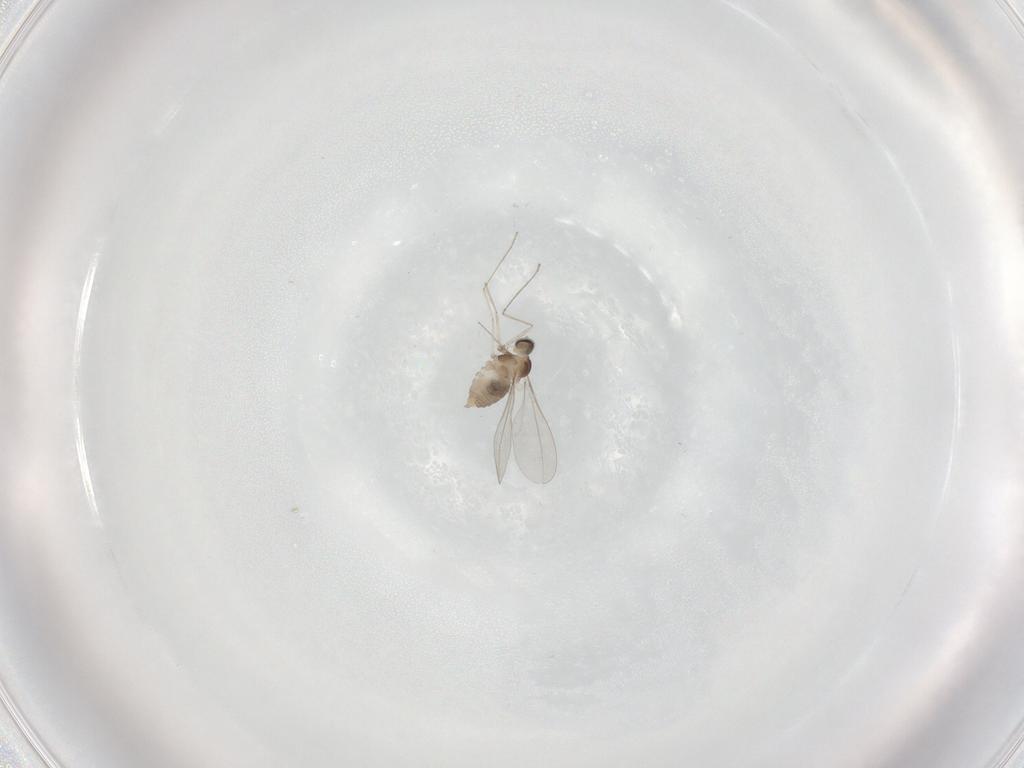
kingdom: Animalia
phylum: Arthropoda
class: Insecta
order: Diptera
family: Cecidomyiidae
